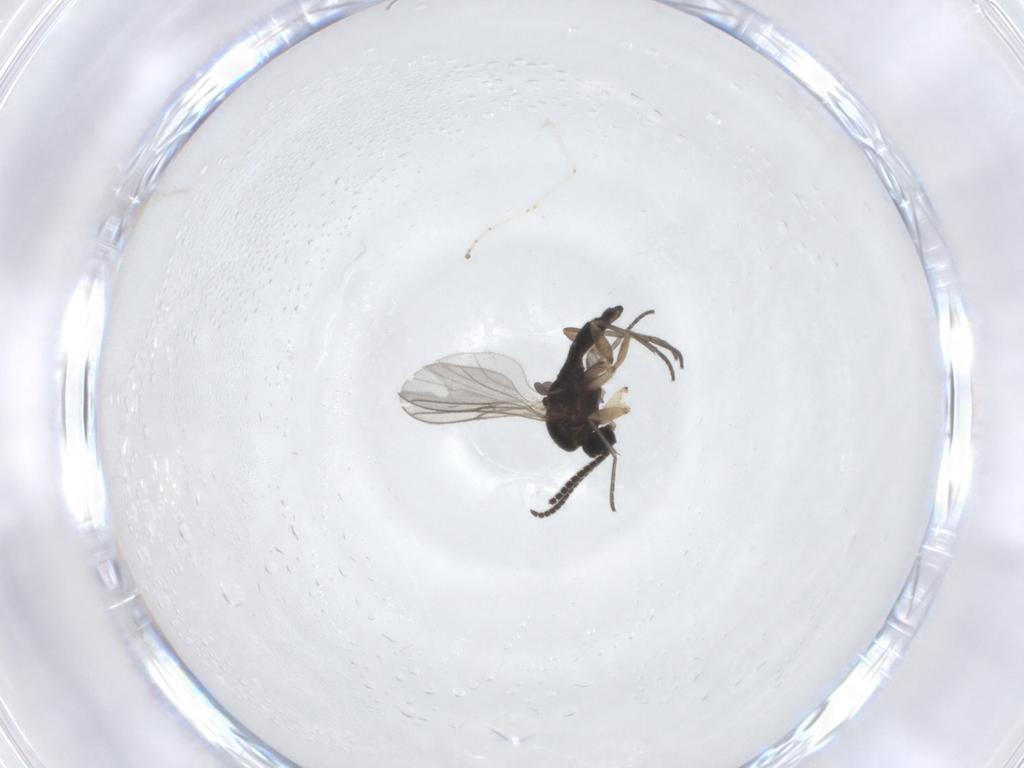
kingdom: Animalia
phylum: Arthropoda
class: Insecta
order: Diptera
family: Sciaridae
